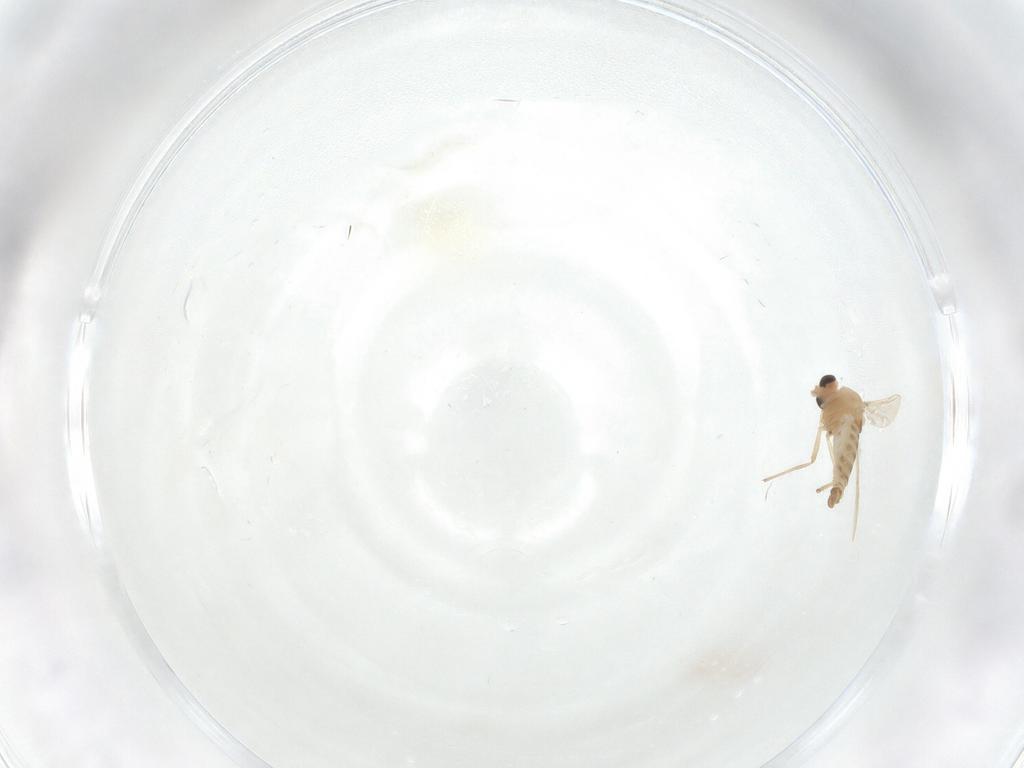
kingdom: Animalia
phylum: Arthropoda
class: Insecta
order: Diptera
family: Chironomidae
